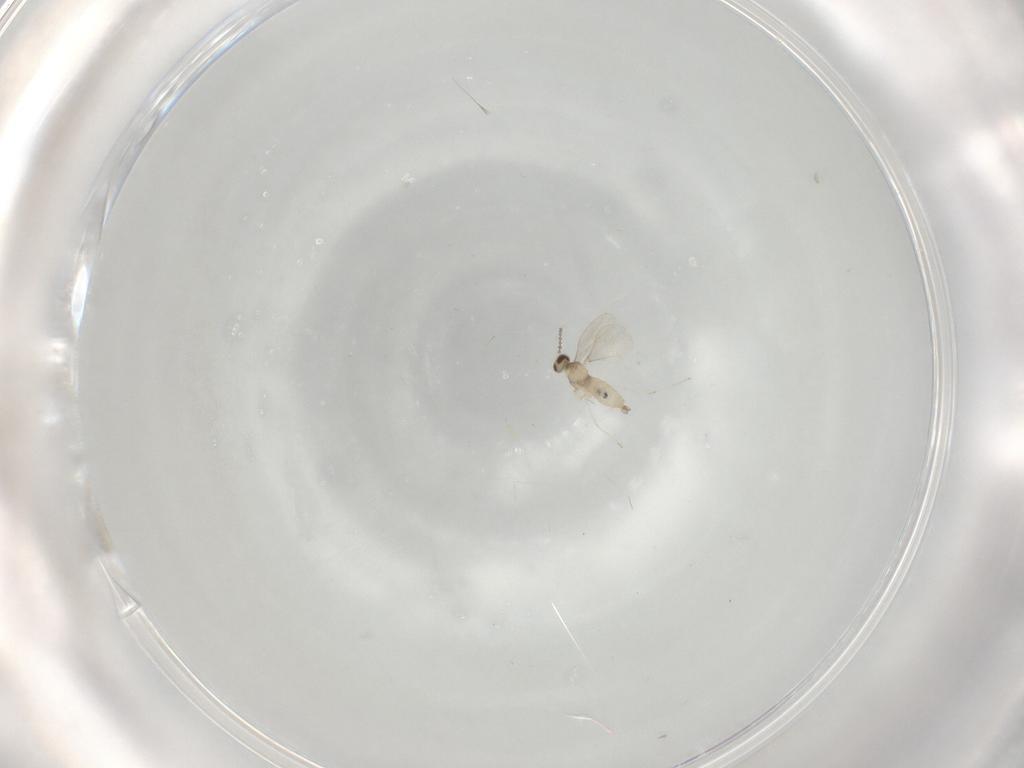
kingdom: Animalia
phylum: Arthropoda
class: Insecta
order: Diptera
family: Cecidomyiidae
